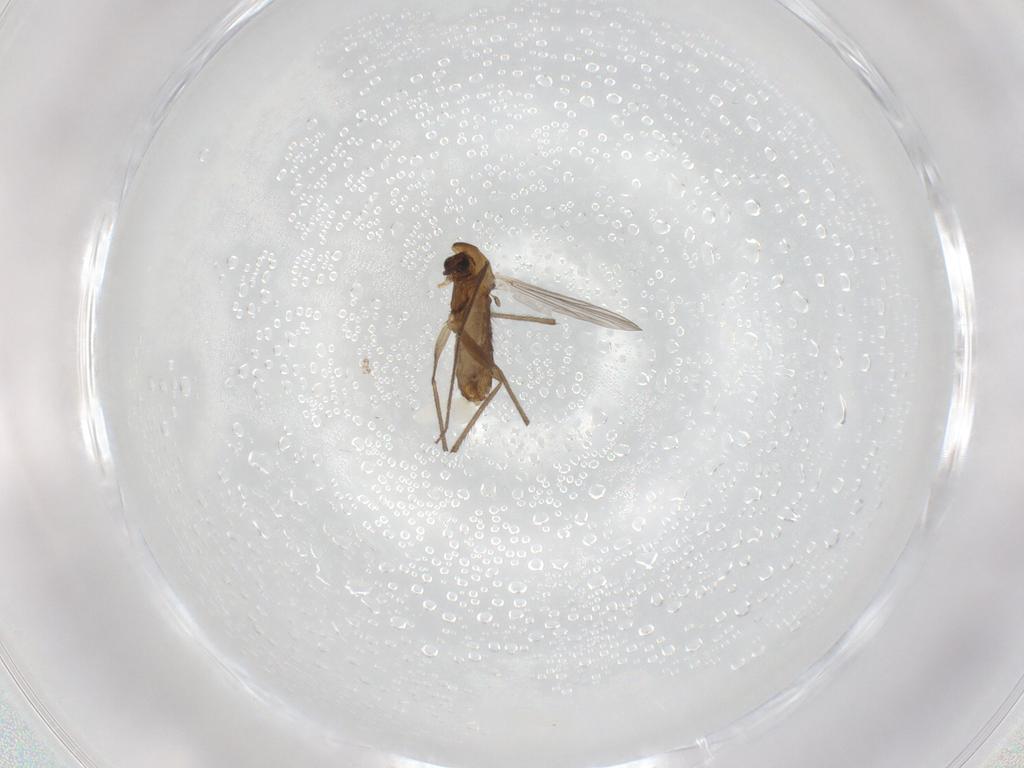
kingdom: Animalia
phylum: Arthropoda
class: Insecta
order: Diptera
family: Chironomidae
